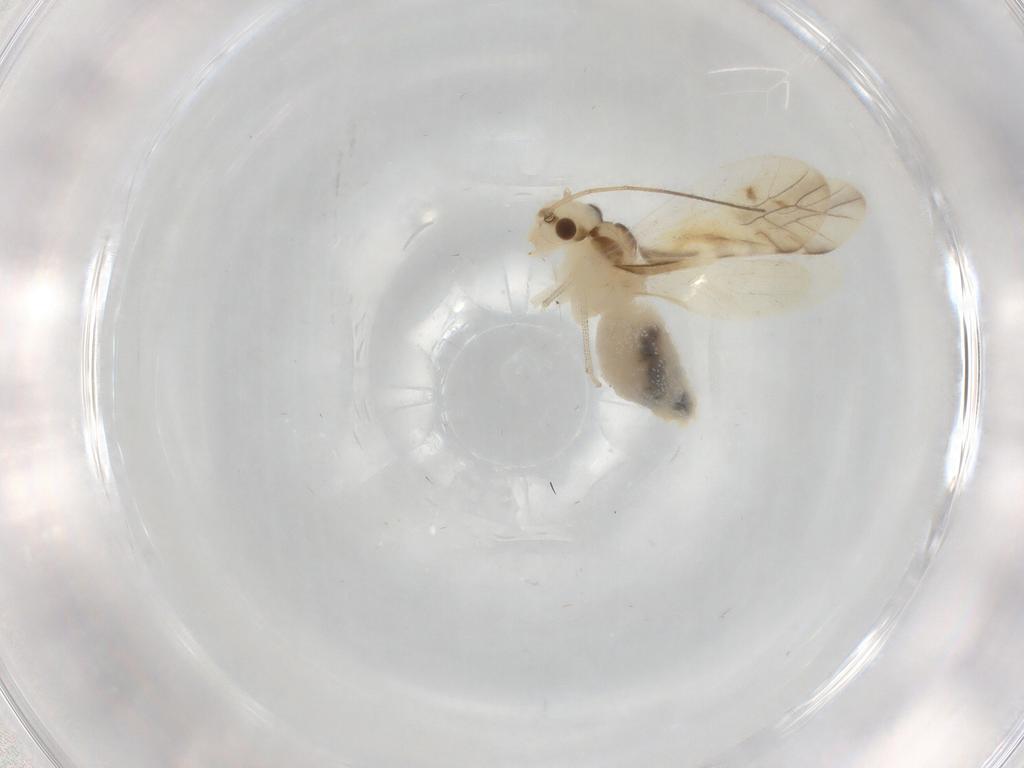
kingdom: Animalia
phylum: Arthropoda
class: Insecta
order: Psocodea
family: Caeciliusidae
